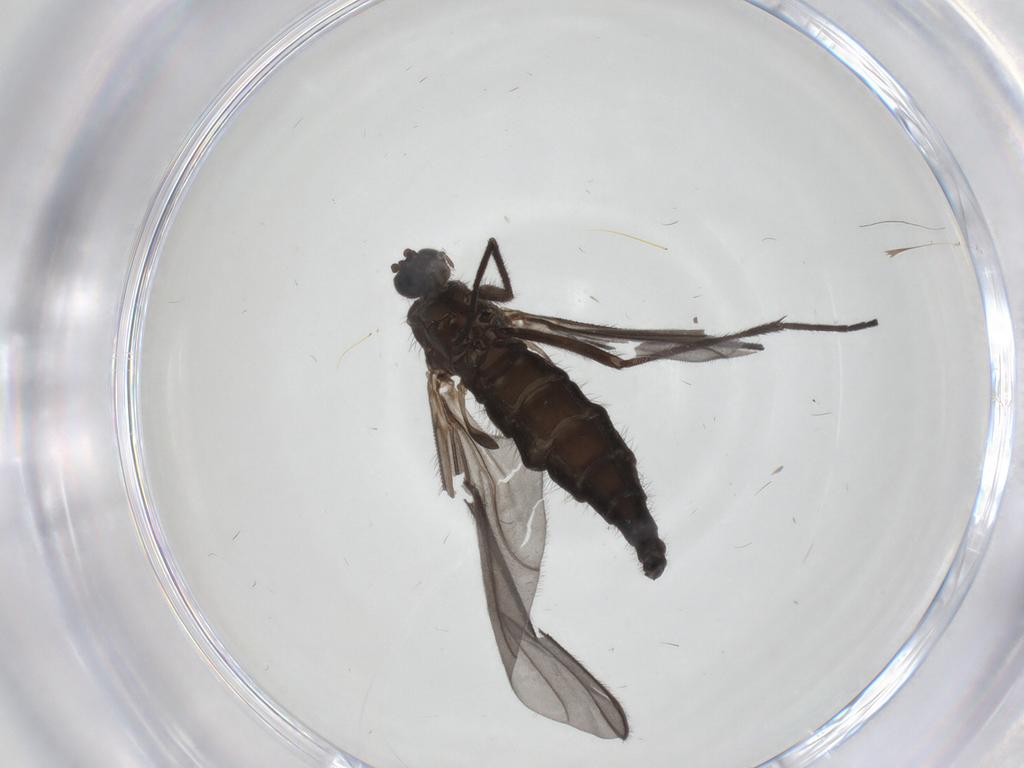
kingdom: Animalia
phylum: Arthropoda
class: Insecta
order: Diptera
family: Sciaridae
